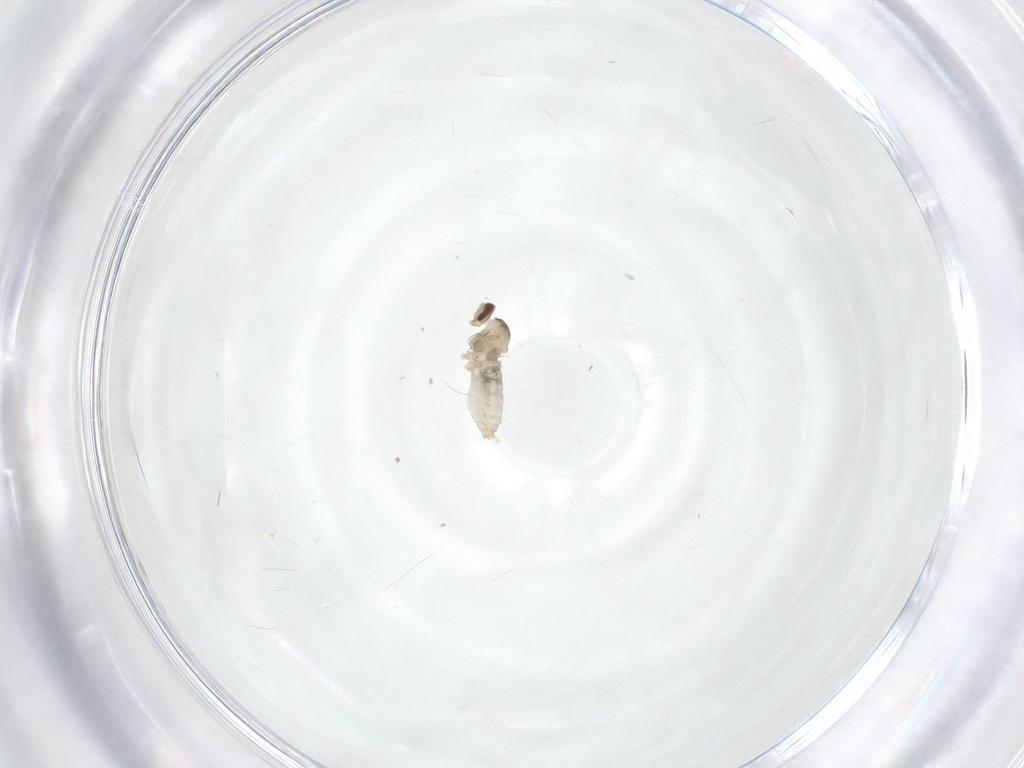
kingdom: Animalia
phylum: Arthropoda
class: Insecta
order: Diptera
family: Cecidomyiidae
